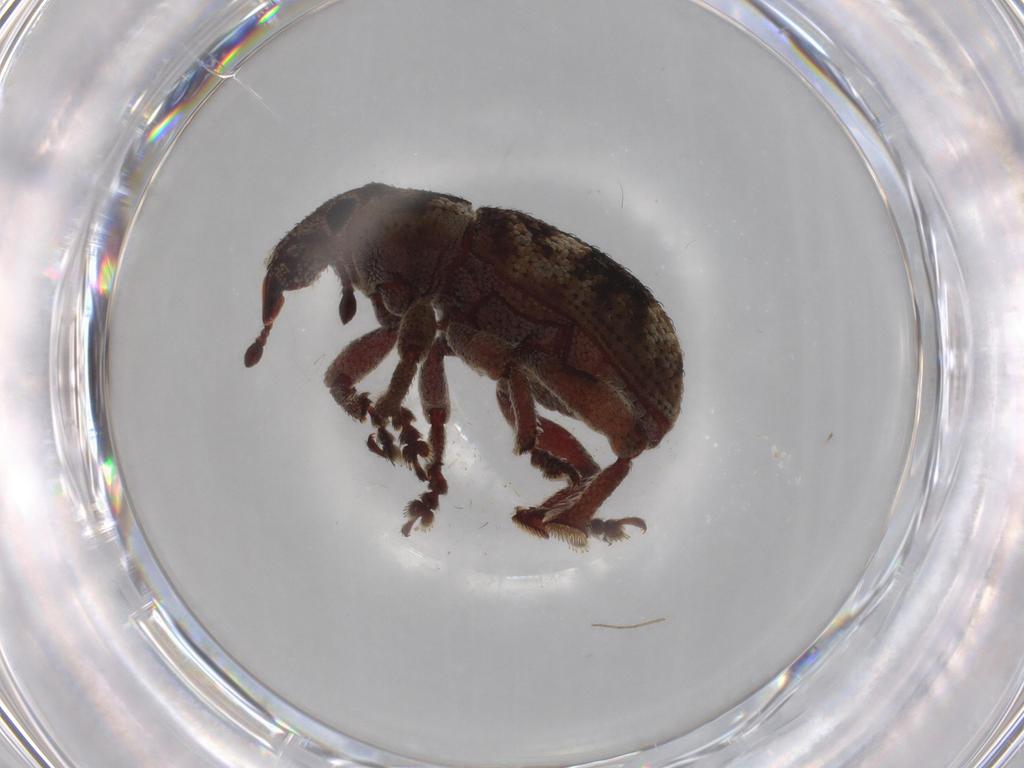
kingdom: Animalia
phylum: Arthropoda
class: Insecta
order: Coleoptera
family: Curculionidae
